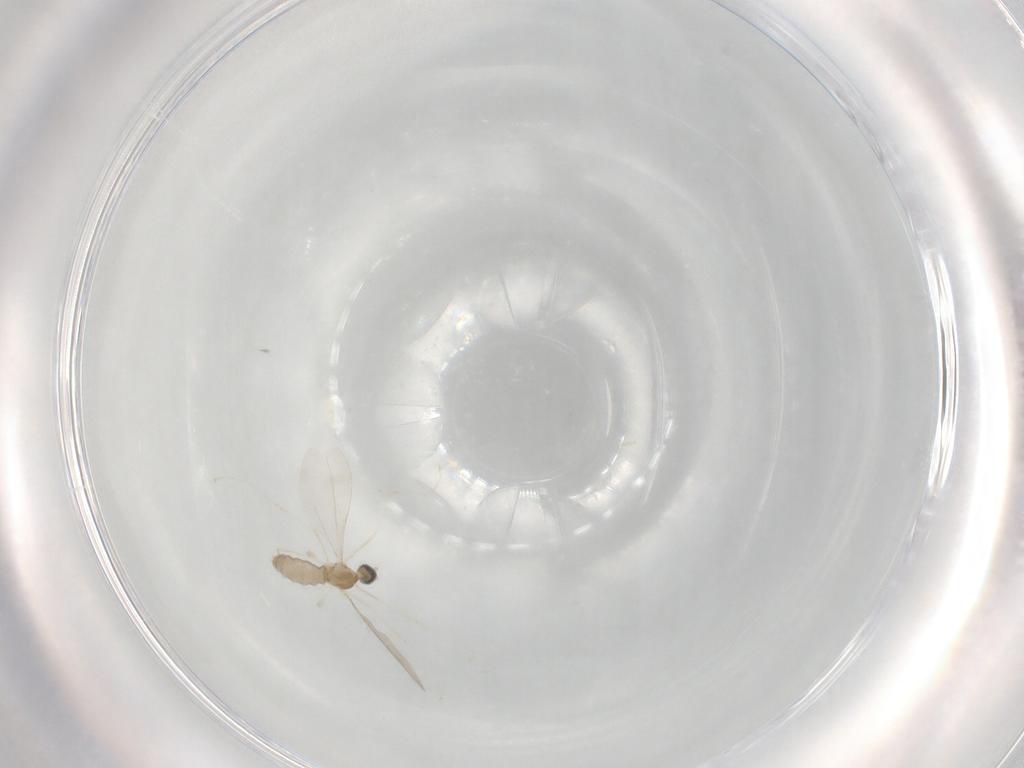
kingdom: Animalia
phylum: Arthropoda
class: Insecta
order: Diptera
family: Cecidomyiidae
